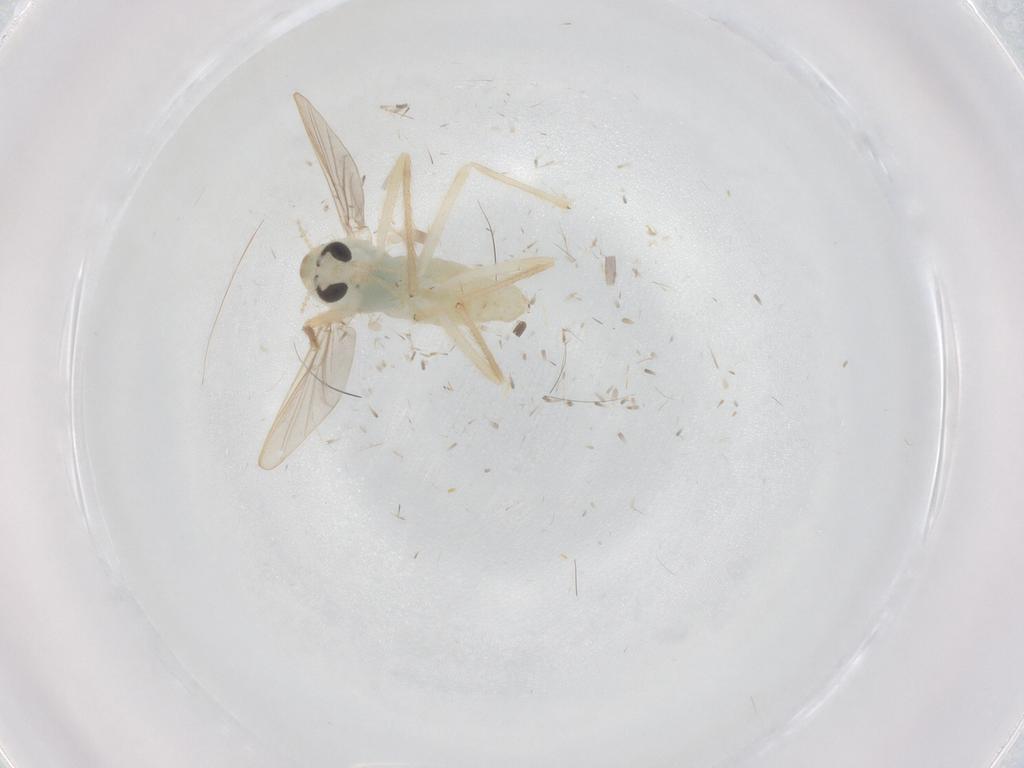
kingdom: Animalia
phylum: Arthropoda
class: Insecta
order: Diptera
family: Chironomidae
